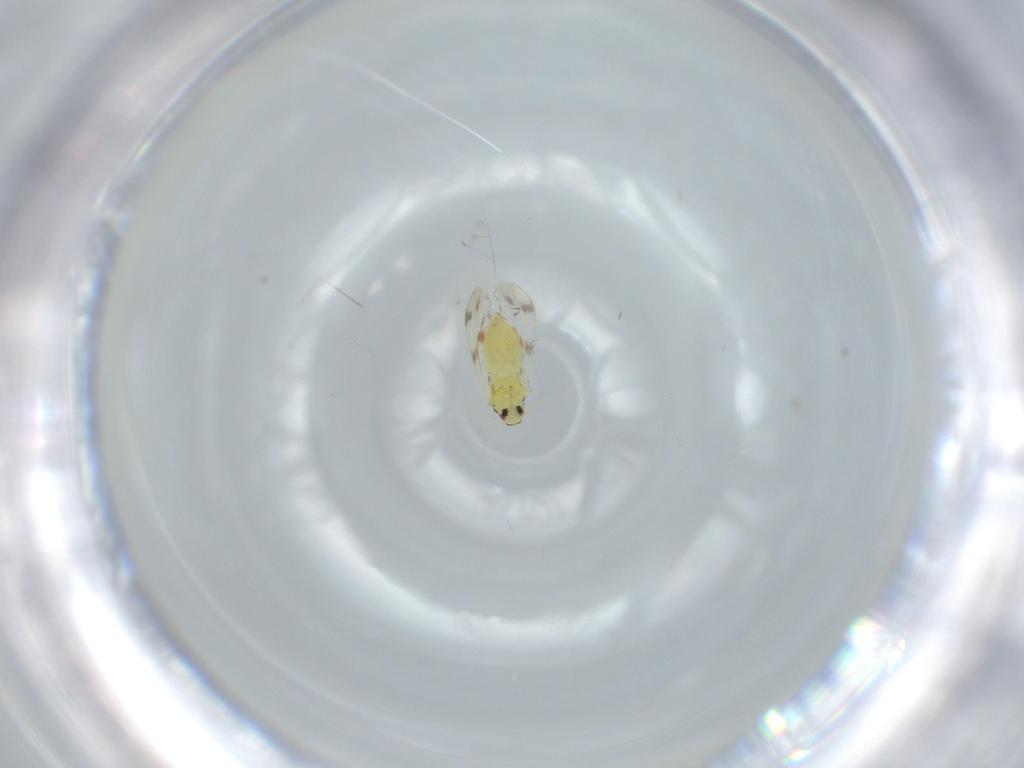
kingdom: Animalia
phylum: Arthropoda
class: Insecta
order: Hemiptera
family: Aleyrodidae
